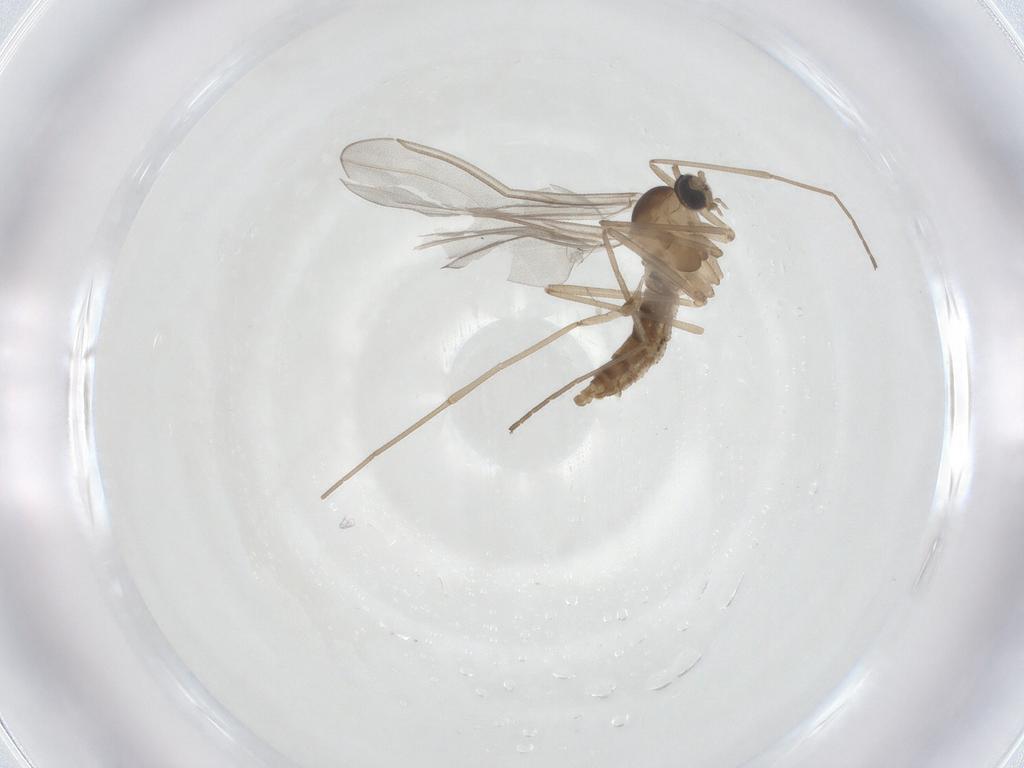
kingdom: Animalia
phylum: Arthropoda
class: Insecta
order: Diptera
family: Cecidomyiidae
